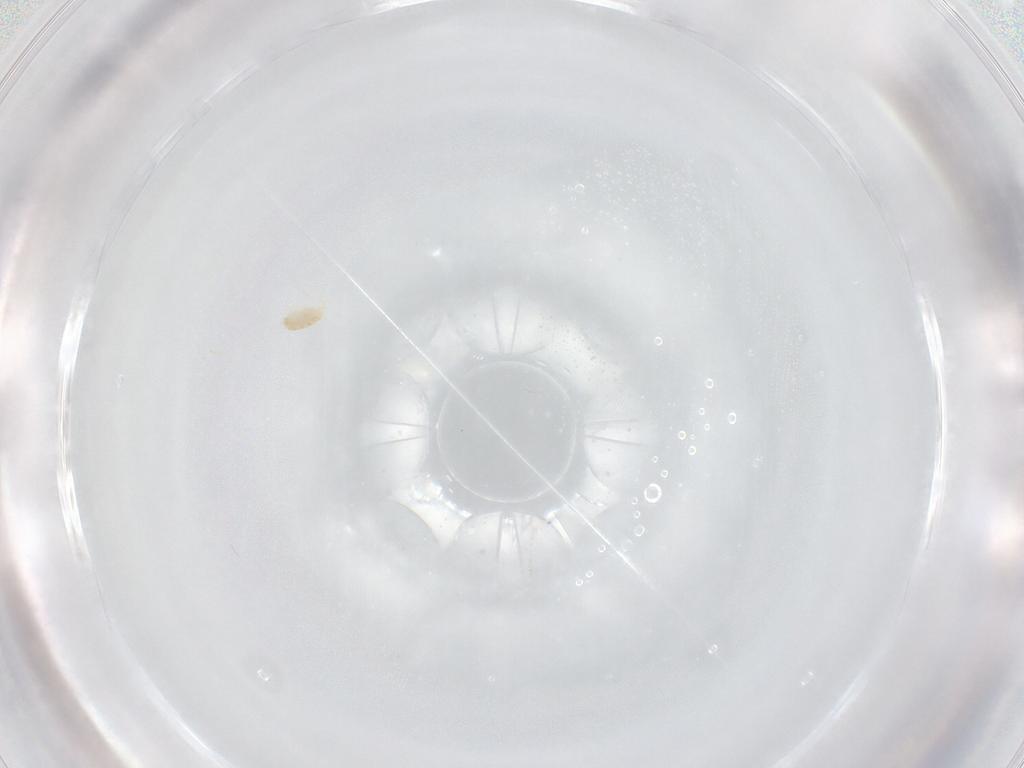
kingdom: Animalia
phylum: Arthropoda
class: Arachnida
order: Trombidiformes
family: Eupodidae
